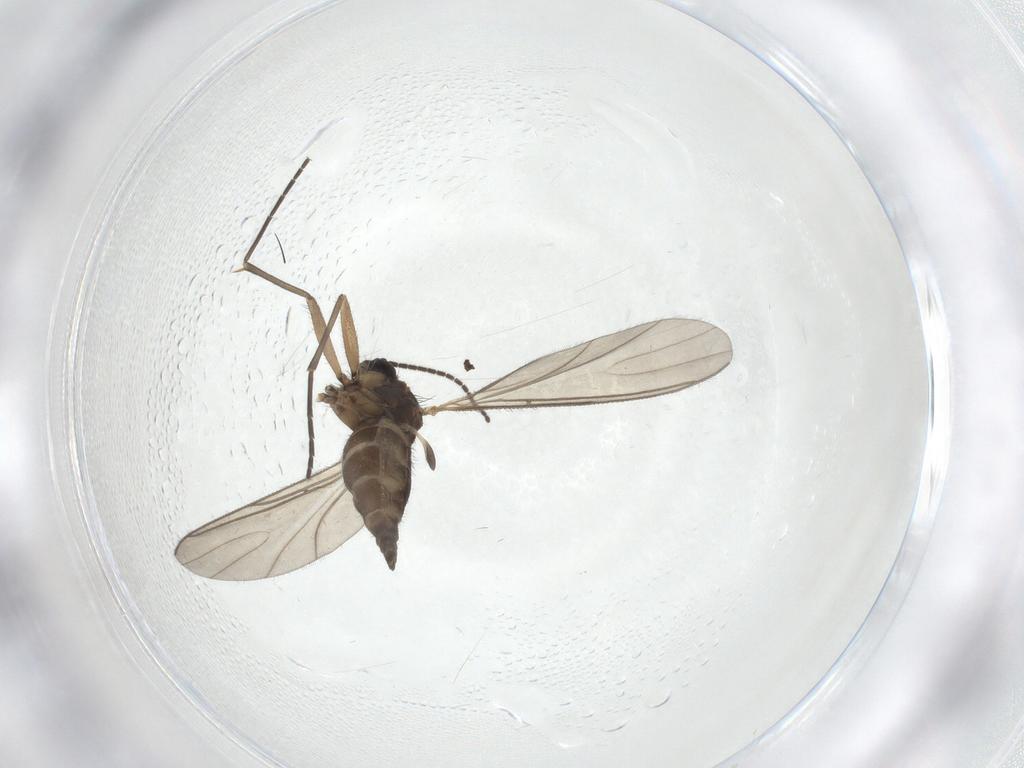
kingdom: Animalia
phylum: Arthropoda
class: Insecta
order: Diptera
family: Sciaridae
